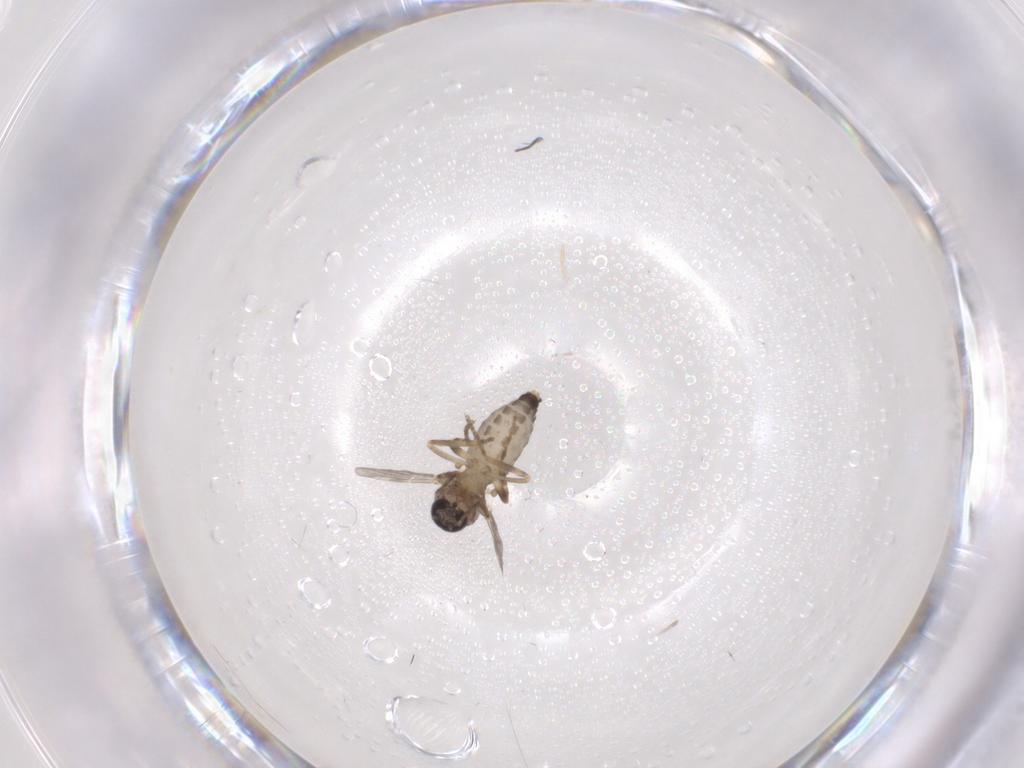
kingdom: Animalia
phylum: Arthropoda
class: Insecta
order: Diptera
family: Ceratopogonidae
